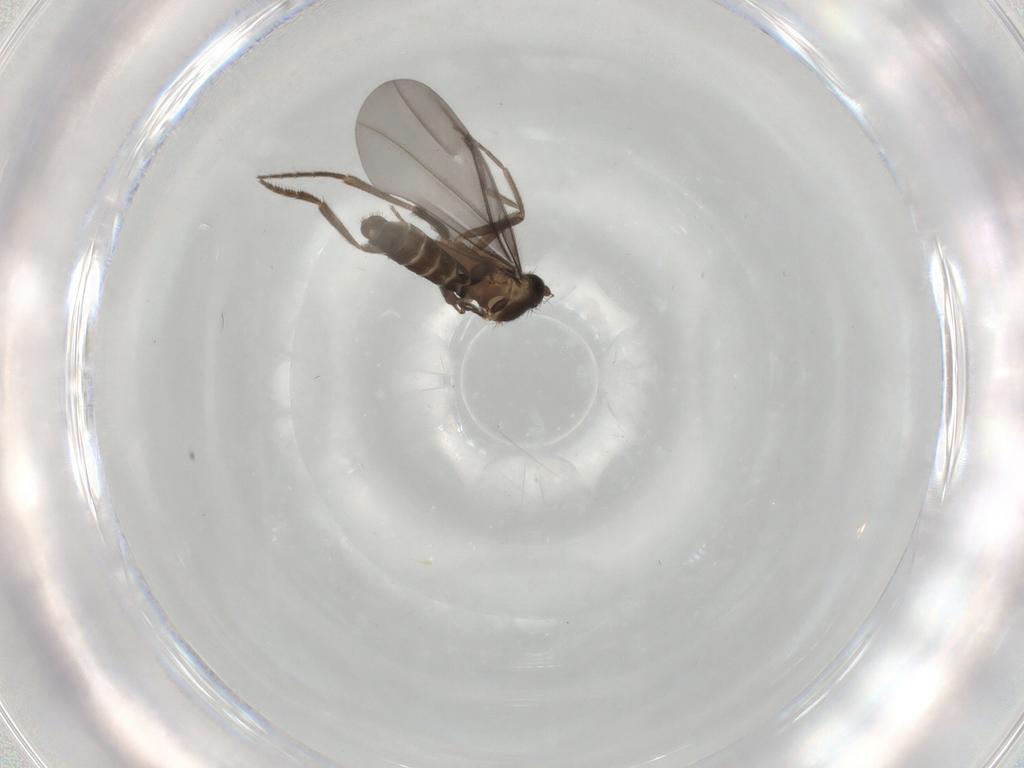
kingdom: Animalia
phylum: Arthropoda
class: Insecta
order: Diptera
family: Phoridae
